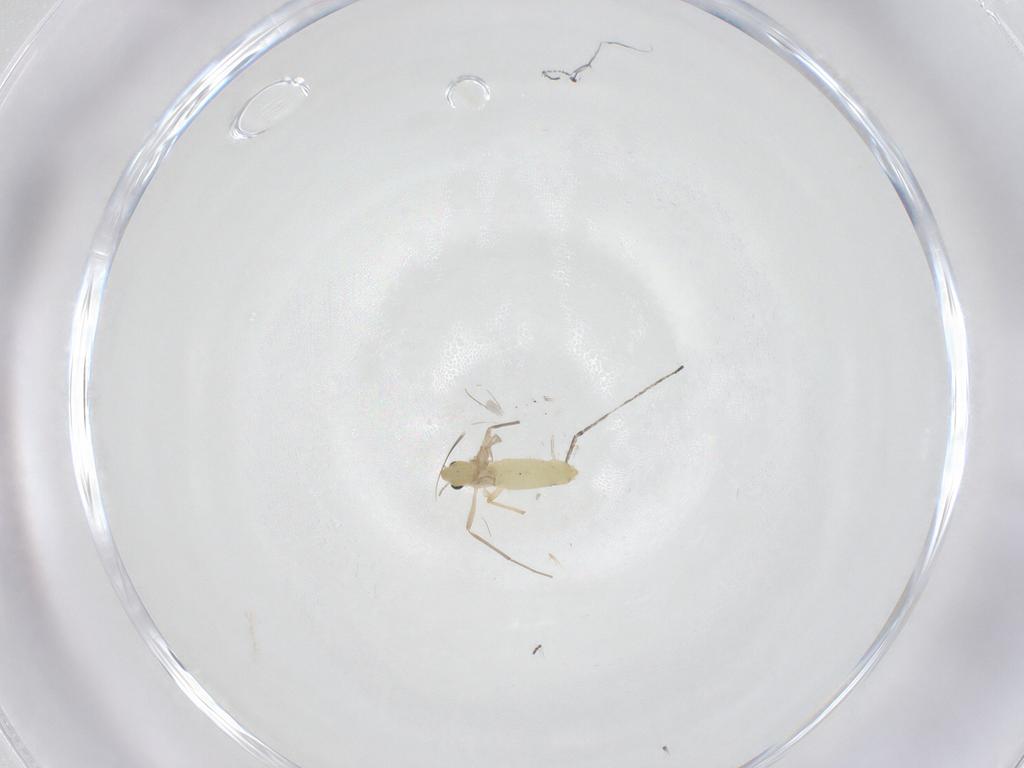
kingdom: Animalia
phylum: Arthropoda
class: Insecta
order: Diptera
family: Chironomidae
